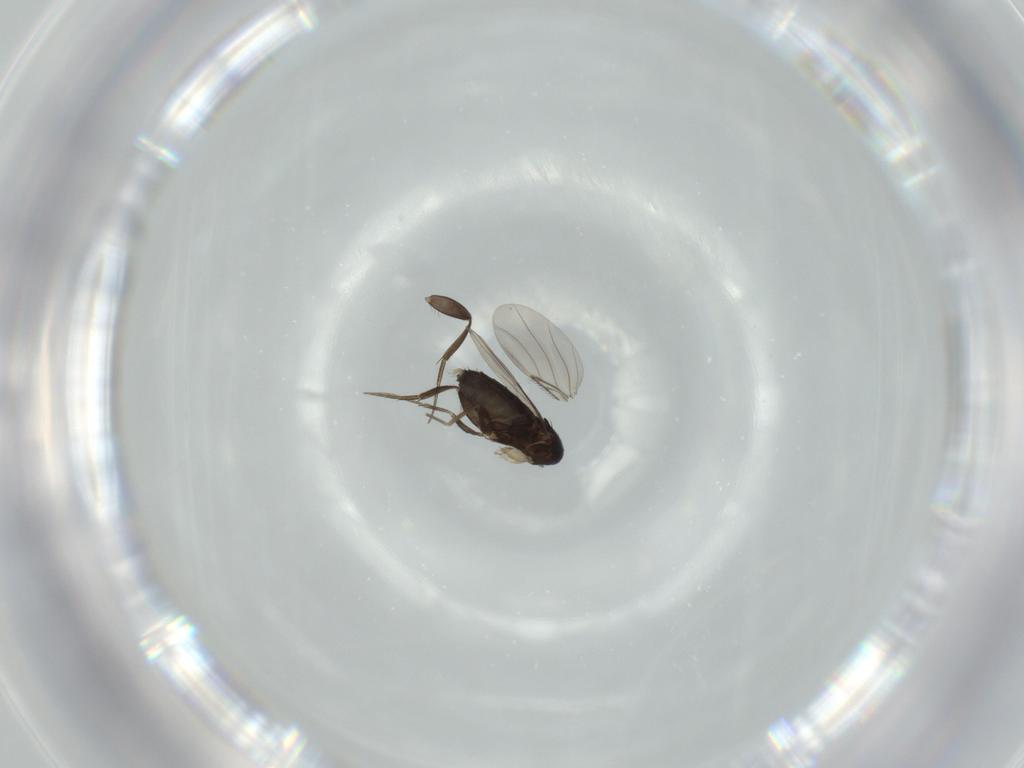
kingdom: Animalia
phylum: Arthropoda
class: Insecta
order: Diptera
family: Phoridae
